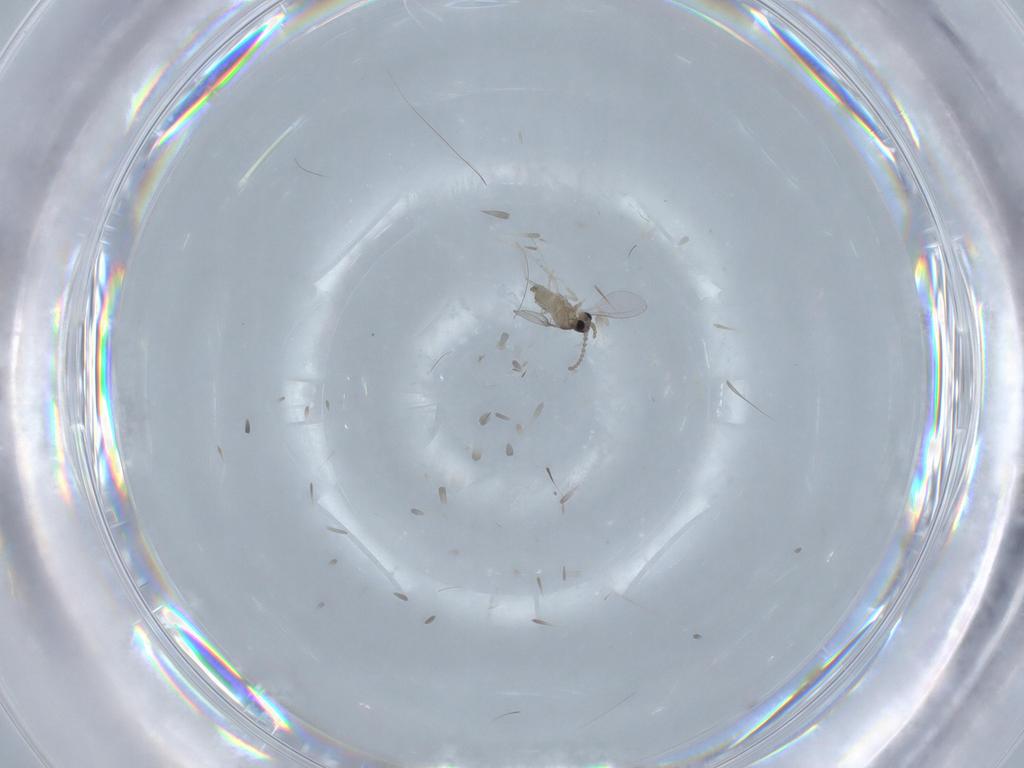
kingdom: Animalia
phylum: Arthropoda
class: Insecta
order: Diptera
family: Cecidomyiidae
